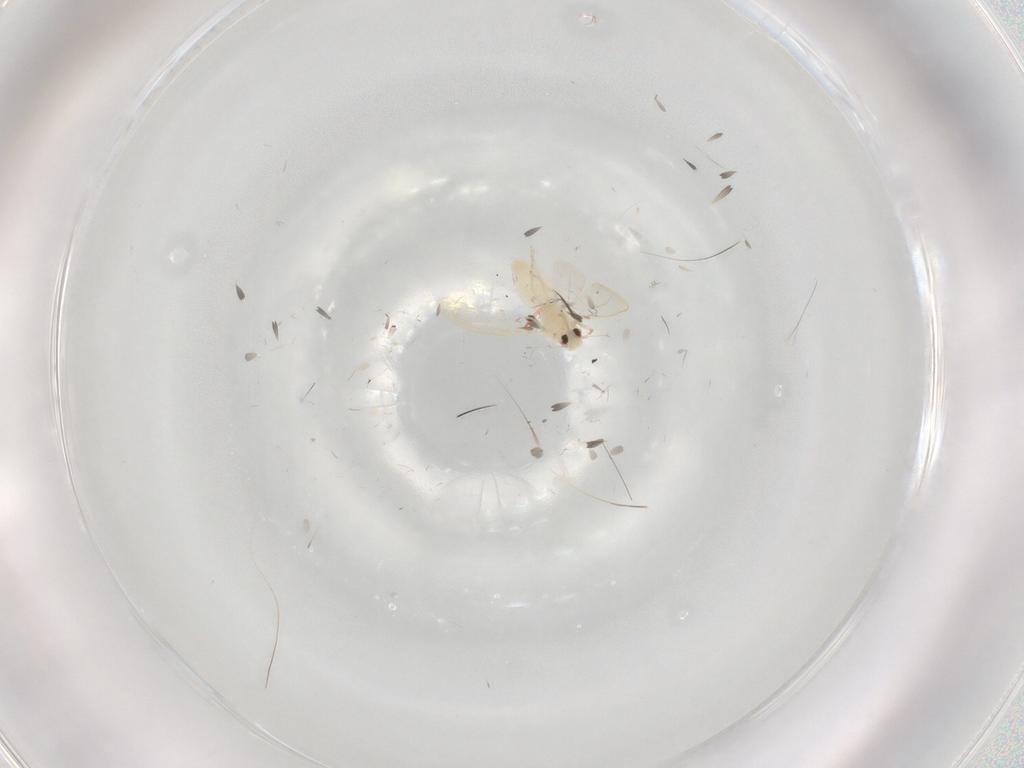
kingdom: Animalia
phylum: Arthropoda
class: Insecta
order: Hemiptera
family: Aleyrodidae
